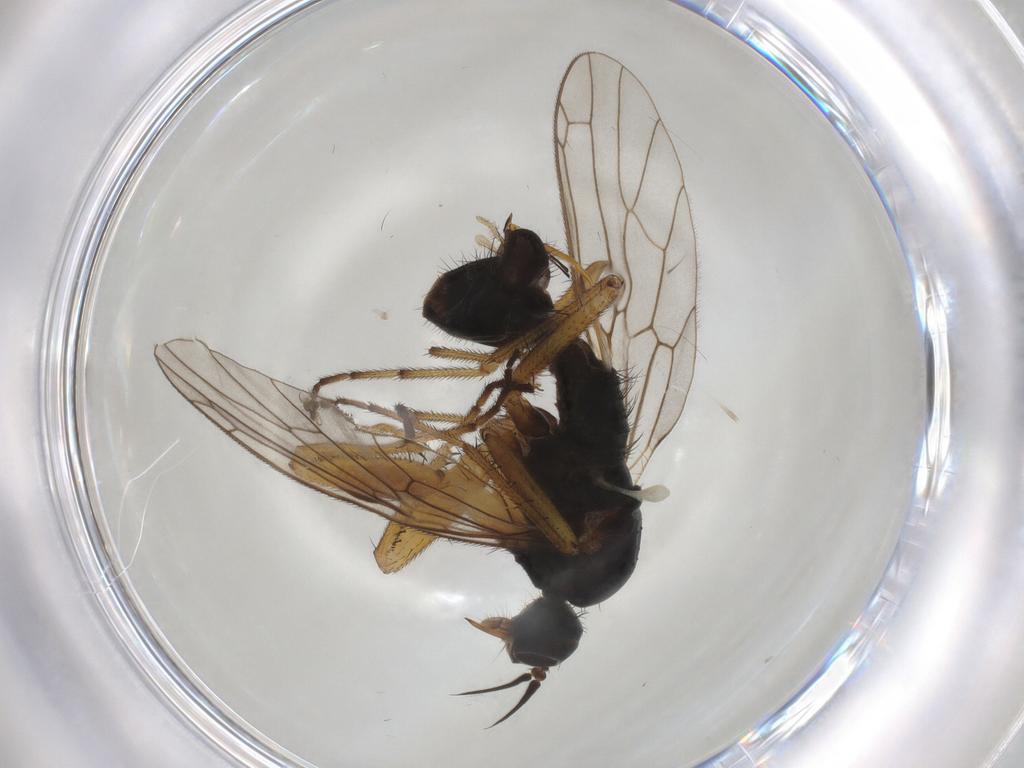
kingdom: Animalia
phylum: Arthropoda
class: Insecta
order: Diptera
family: Empididae
